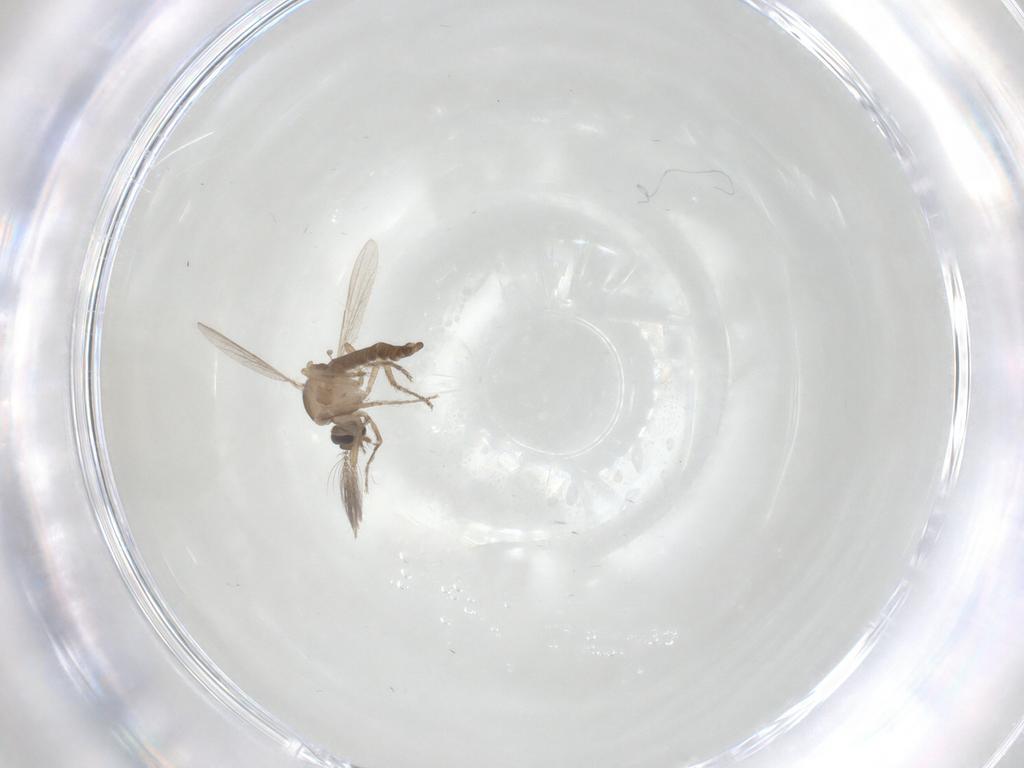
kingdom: Animalia
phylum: Arthropoda
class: Insecta
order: Diptera
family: Ceratopogonidae
